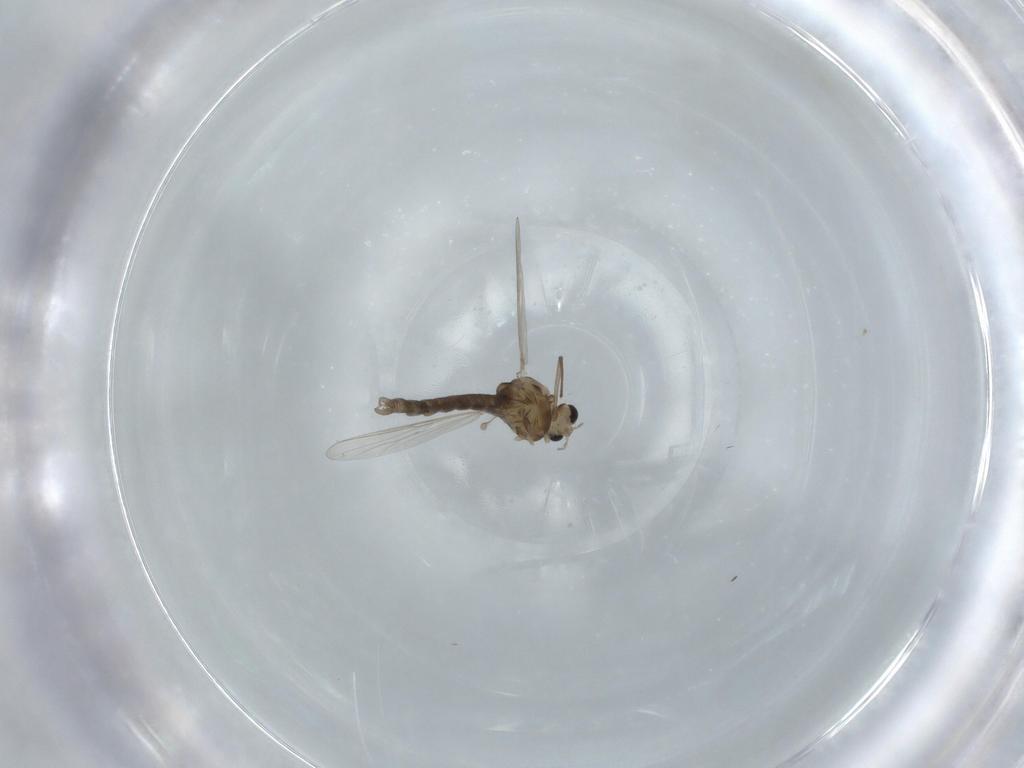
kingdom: Animalia
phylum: Arthropoda
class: Insecta
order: Diptera
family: Chironomidae
